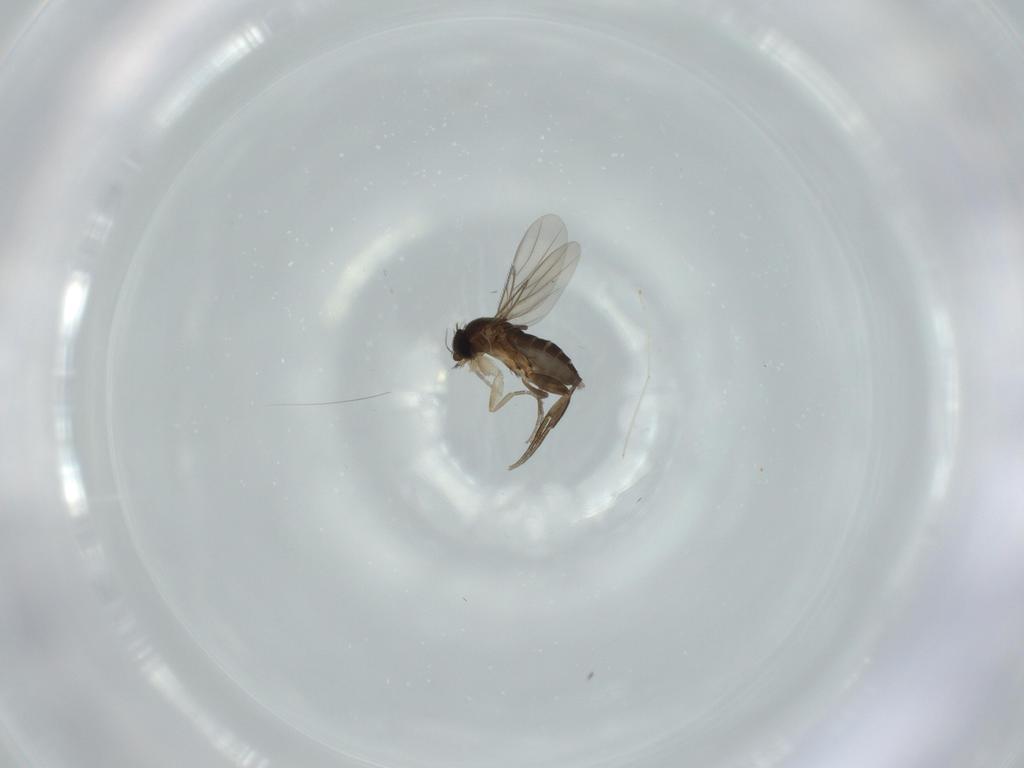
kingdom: Animalia
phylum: Arthropoda
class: Insecta
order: Diptera
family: Phoridae
